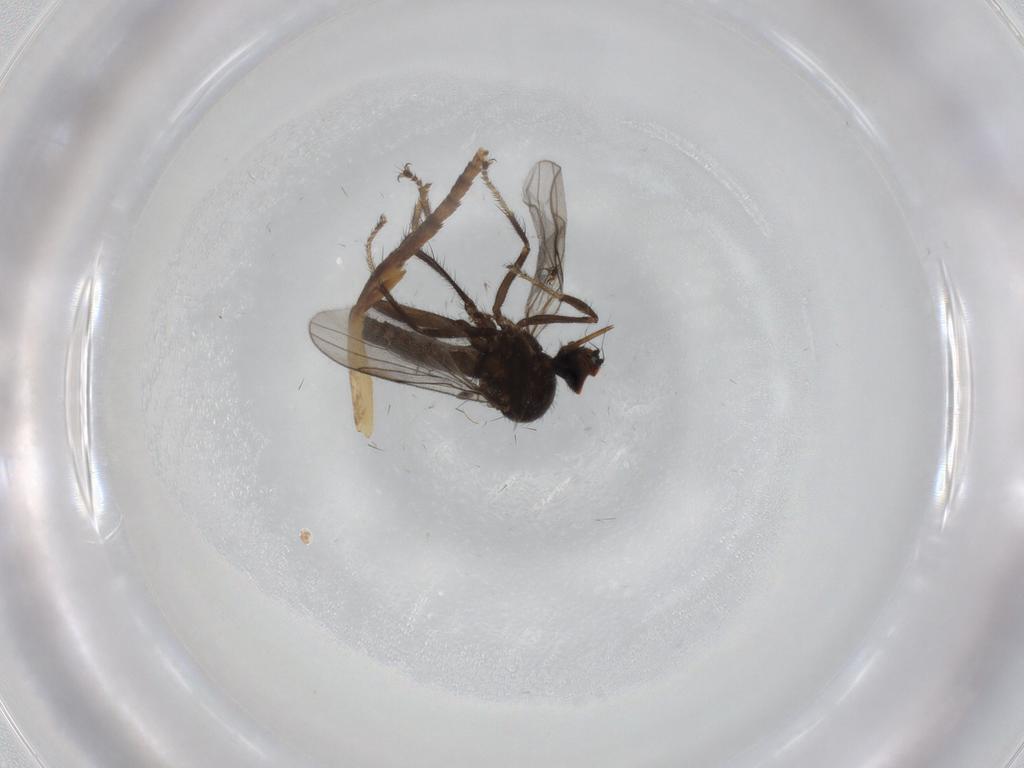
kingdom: Animalia
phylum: Arthropoda
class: Insecta
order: Diptera
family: Hybotidae
